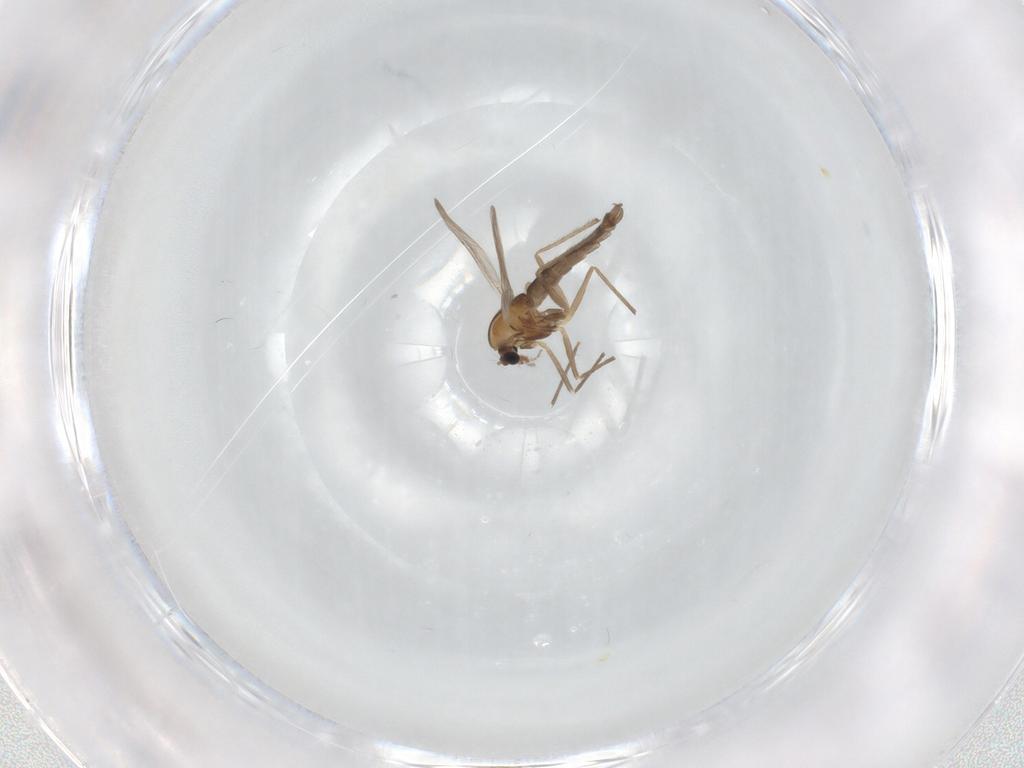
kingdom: Animalia
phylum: Arthropoda
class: Insecta
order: Diptera
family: Chironomidae
